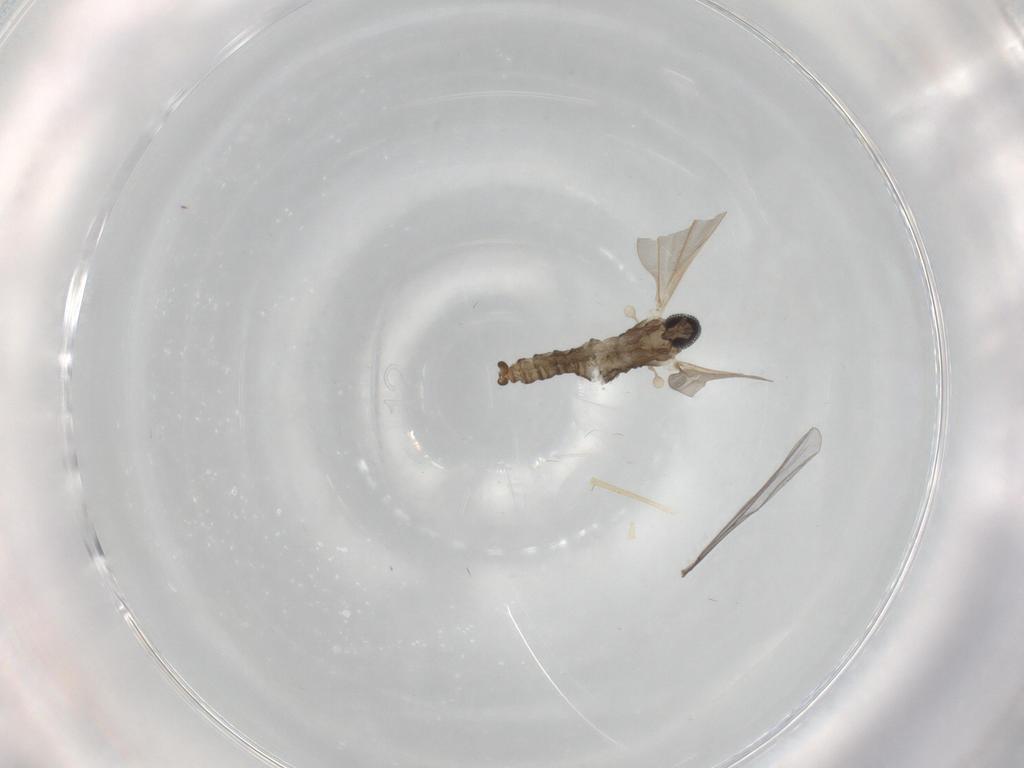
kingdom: Animalia
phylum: Arthropoda
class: Insecta
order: Diptera
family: Cecidomyiidae
